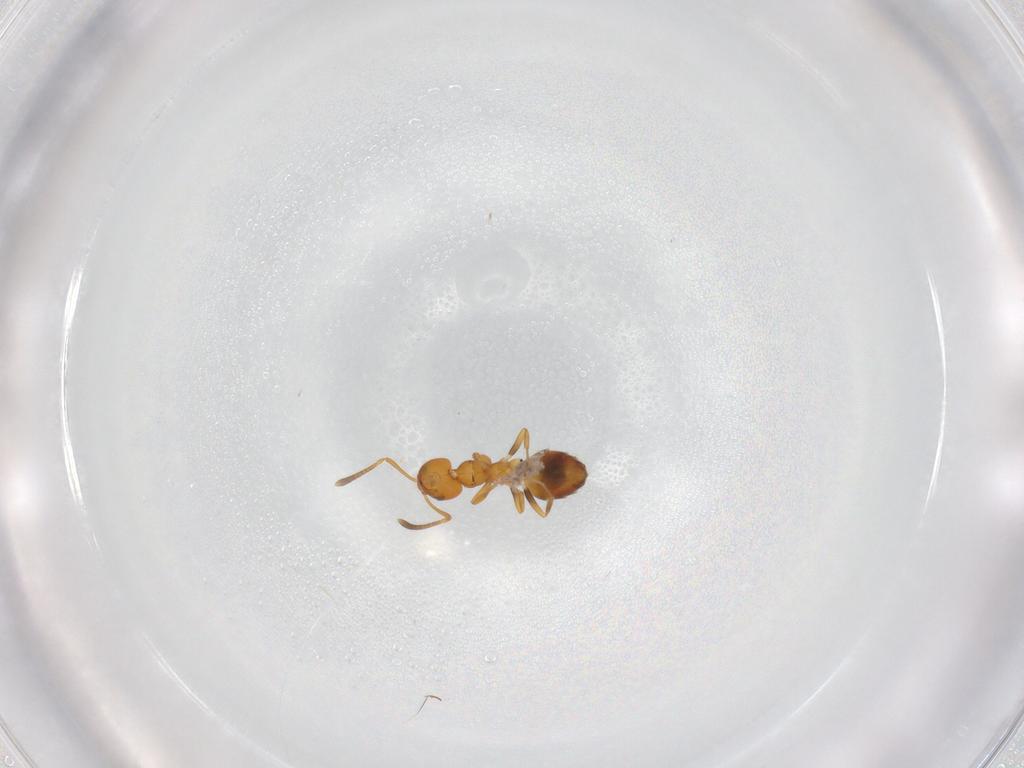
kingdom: Animalia
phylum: Arthropoda
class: Insecta
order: Hymenoptera
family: Formicidae
